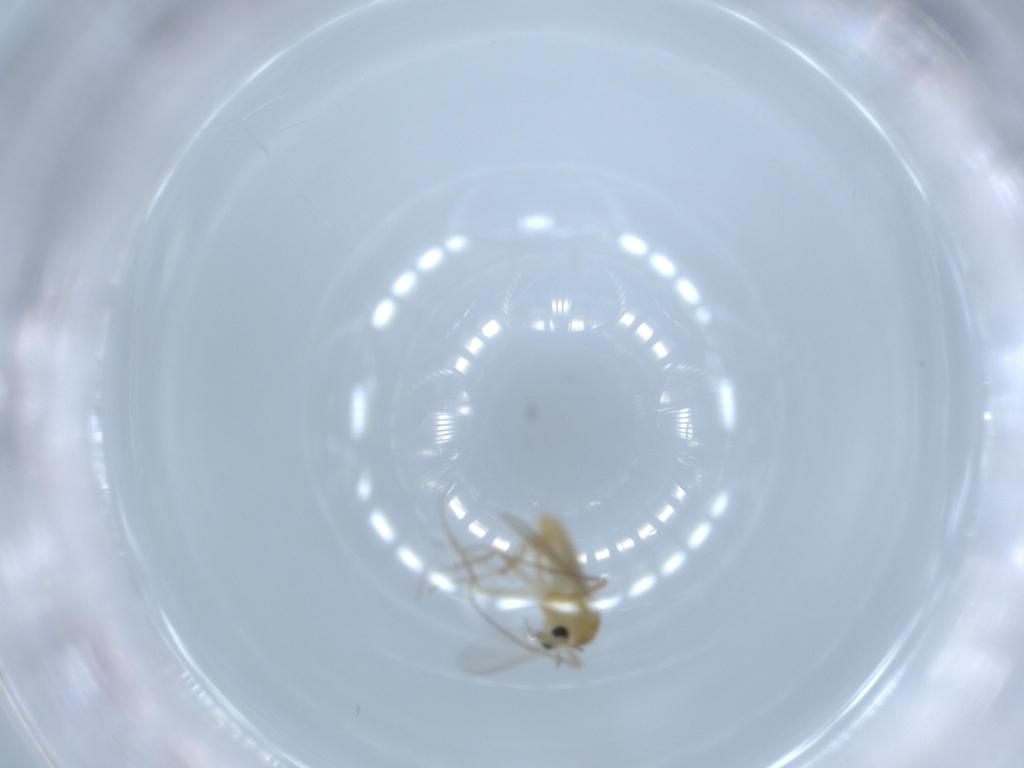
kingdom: Animalia
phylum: Arthropoda
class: Insecta
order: Diptera
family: Chironomidae
